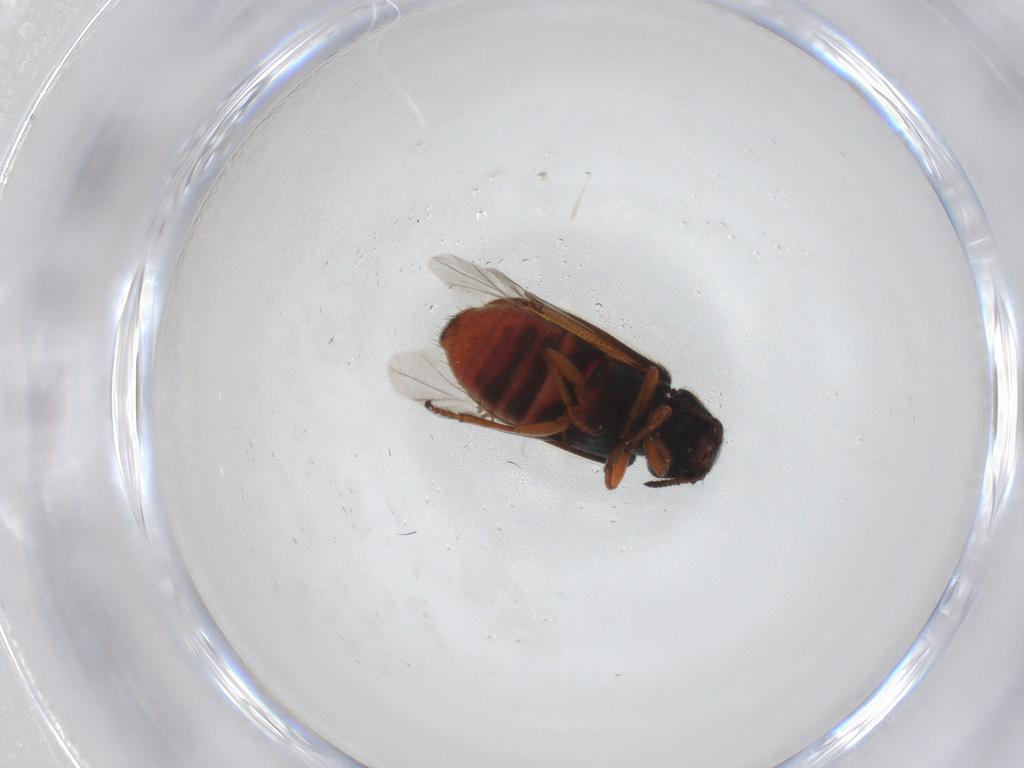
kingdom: Animalia
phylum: Arthropoda
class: Insecta
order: Coleoptera
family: Melyridae
